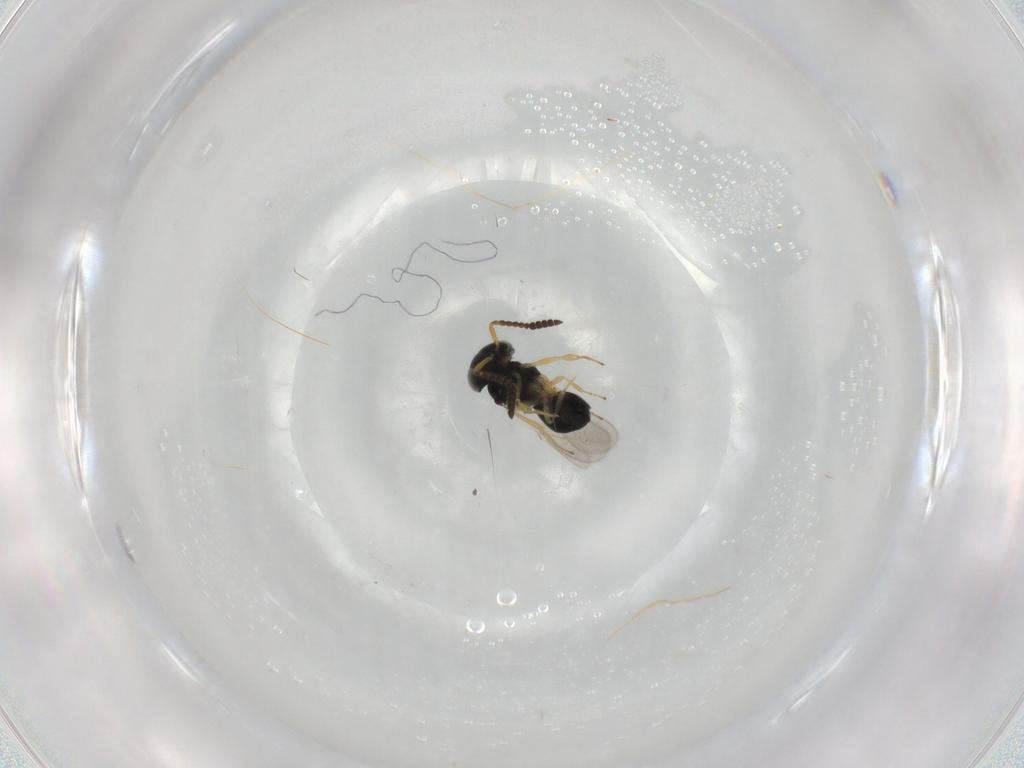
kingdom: Animalia
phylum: Arthropoda
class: Insecta
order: Hymenoptera
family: Scelionidae
